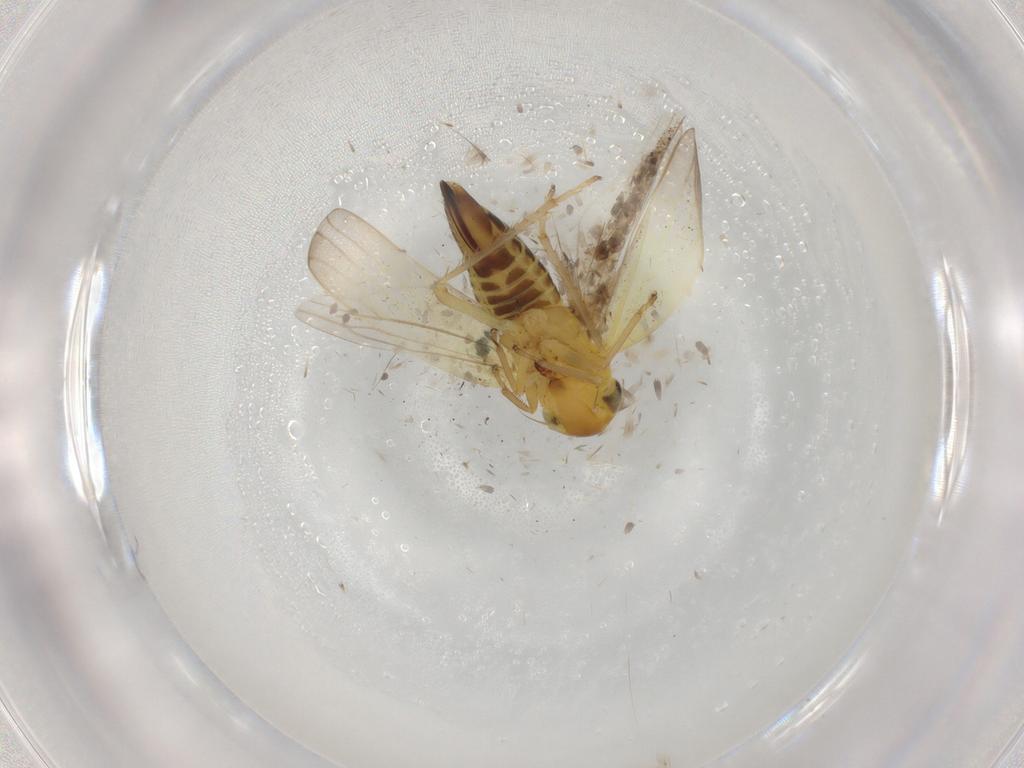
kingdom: Animalia
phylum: Arthropoda
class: Insecta
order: Hemiptera
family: Cicadellidae
